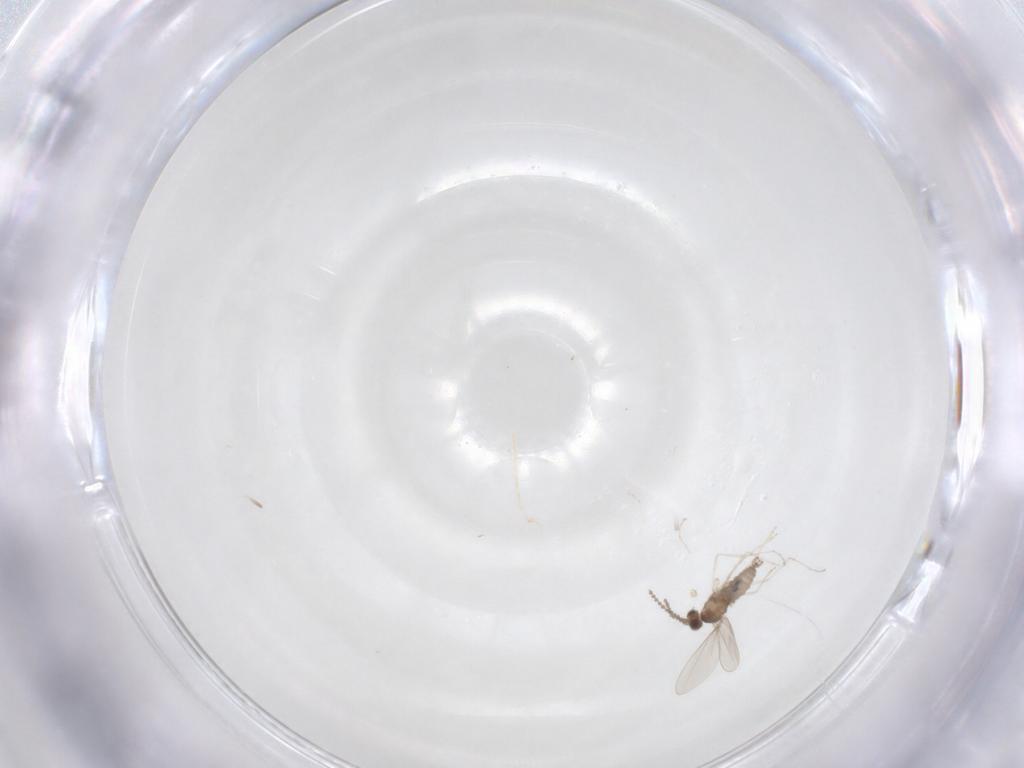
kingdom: Animalia
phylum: Arthropoda
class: Insecta
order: Diptera
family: Cecidomyiidae
